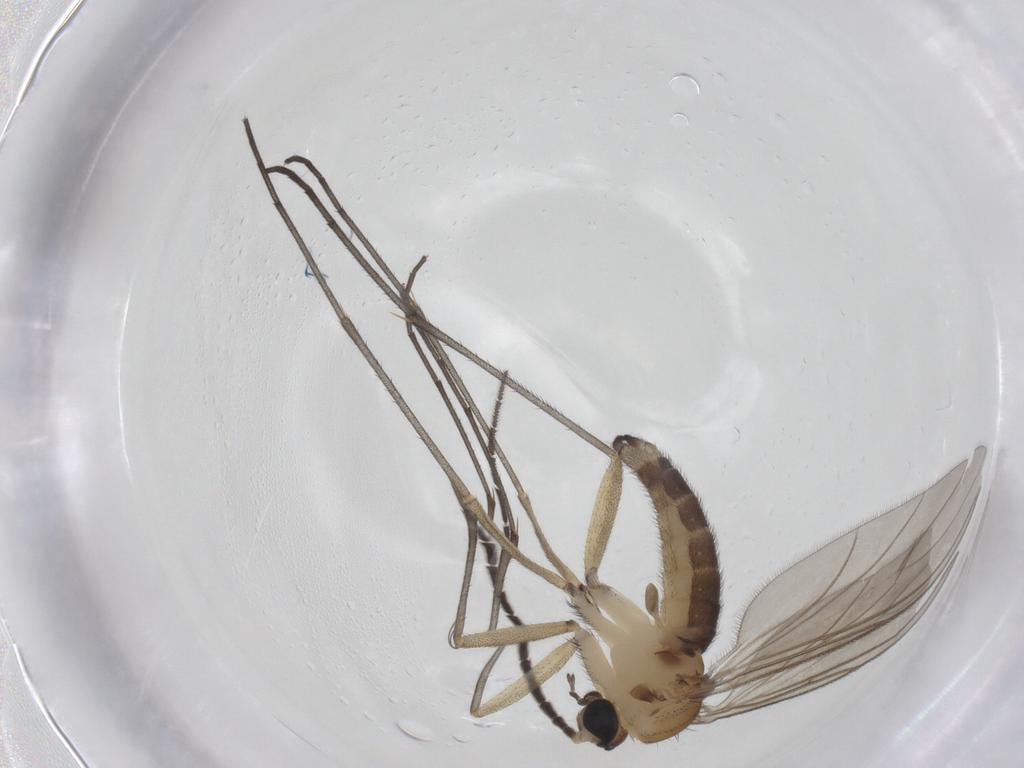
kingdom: Animalia
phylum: Arthropoda
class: Insecta
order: Diptera
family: Sciaridae
